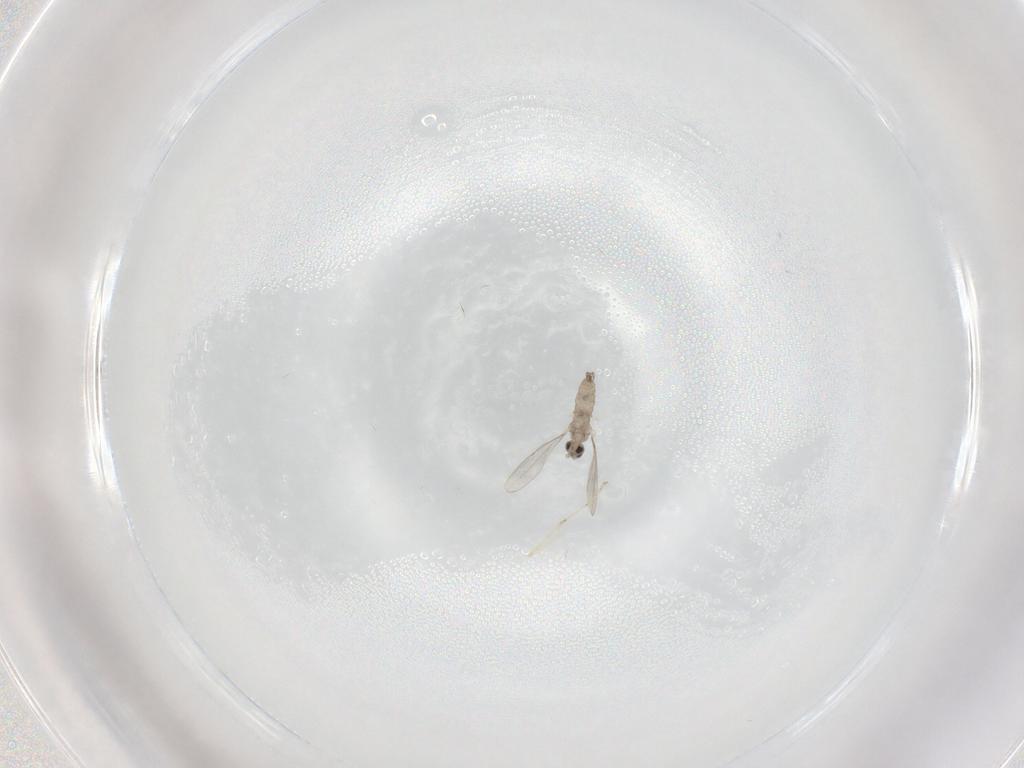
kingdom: Animalia
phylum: Arthropoda
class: Insecta
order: Diptera
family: Cecidomyiidae
